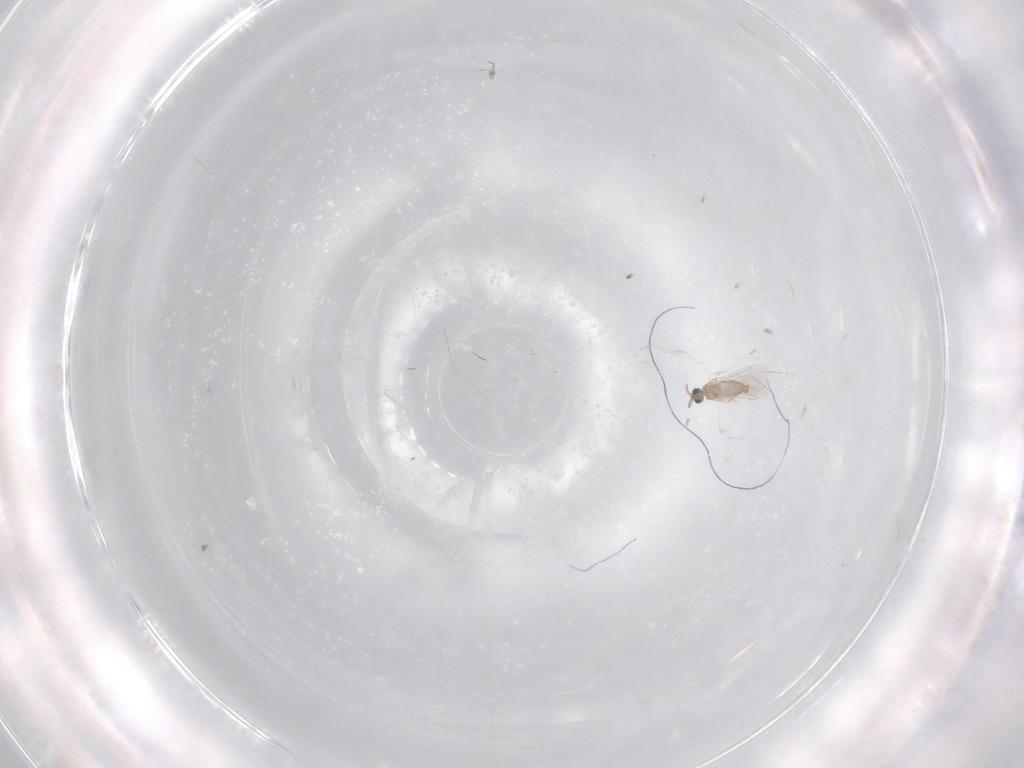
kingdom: Animalia
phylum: Arthropoda
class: Insecta
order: Diptera
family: Cecidomyiidae
